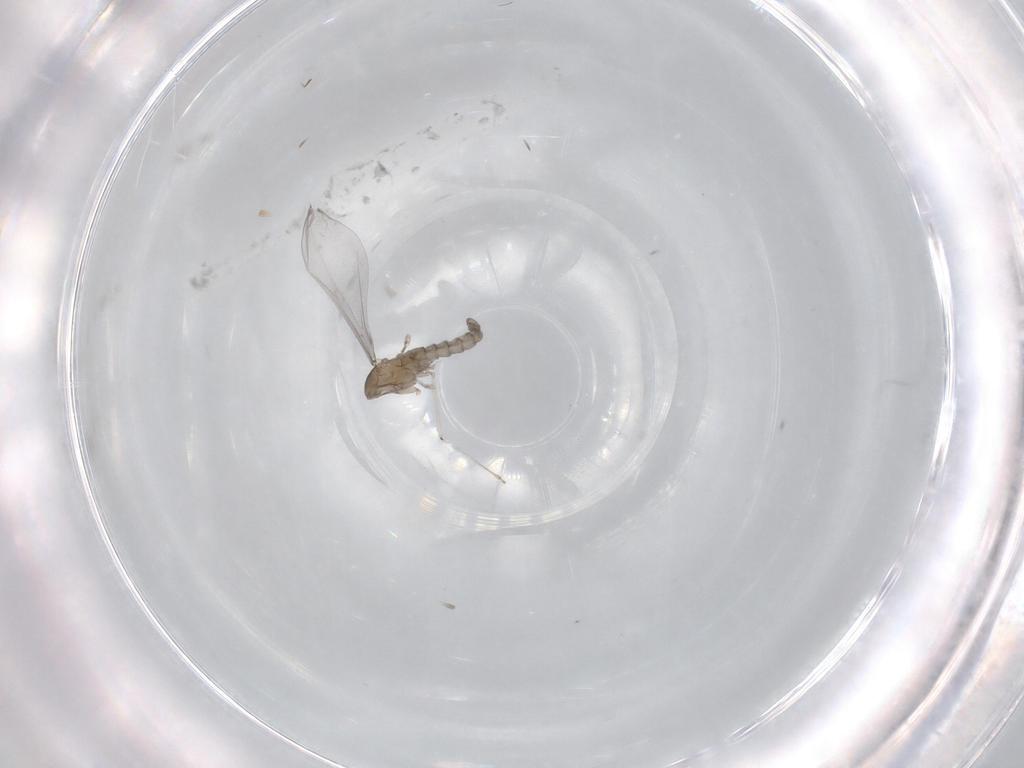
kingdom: Animalia
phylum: Arthropoda
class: Insecta
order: Diptera
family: Cecidomyiidae
